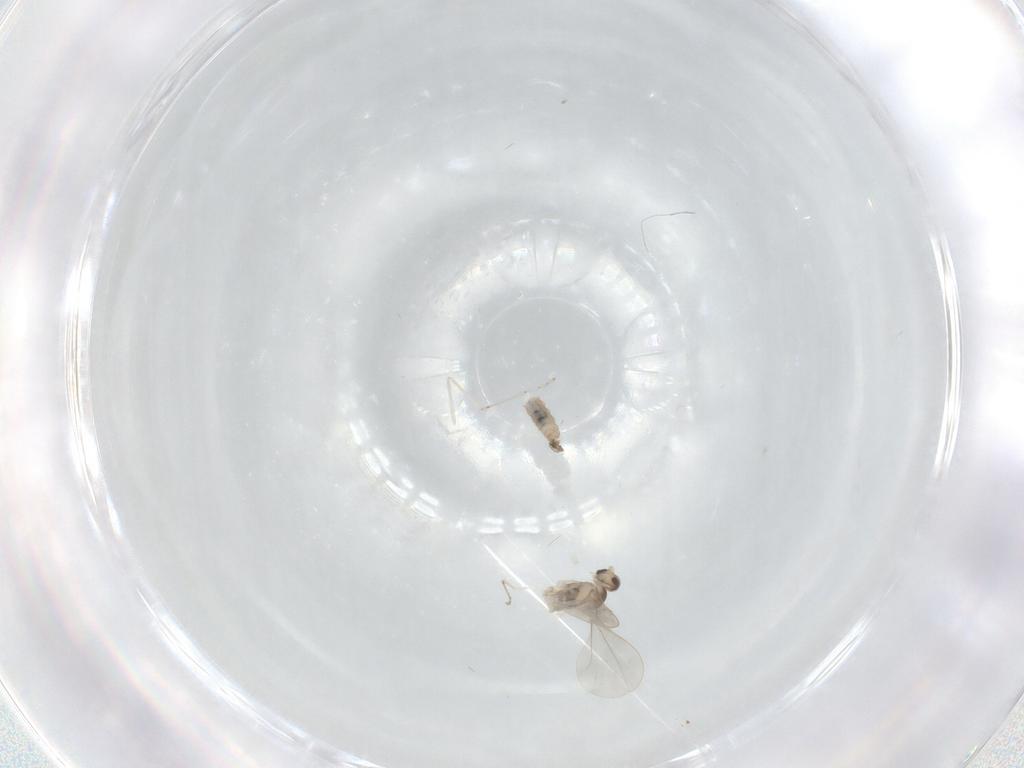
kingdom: Animalia
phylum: Arthropoda
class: Insecta
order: Diptera
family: Cecidomyiidae
